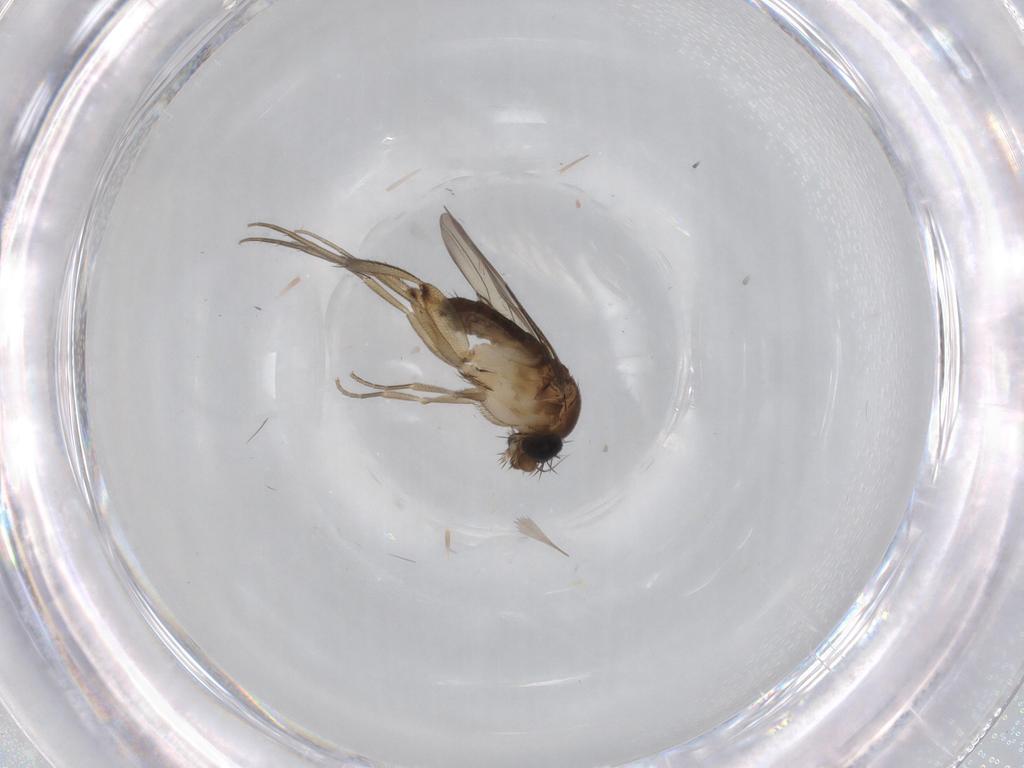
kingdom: Animalia
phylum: Arthropoda
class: Insecta
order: Diptera
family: Phoridae
